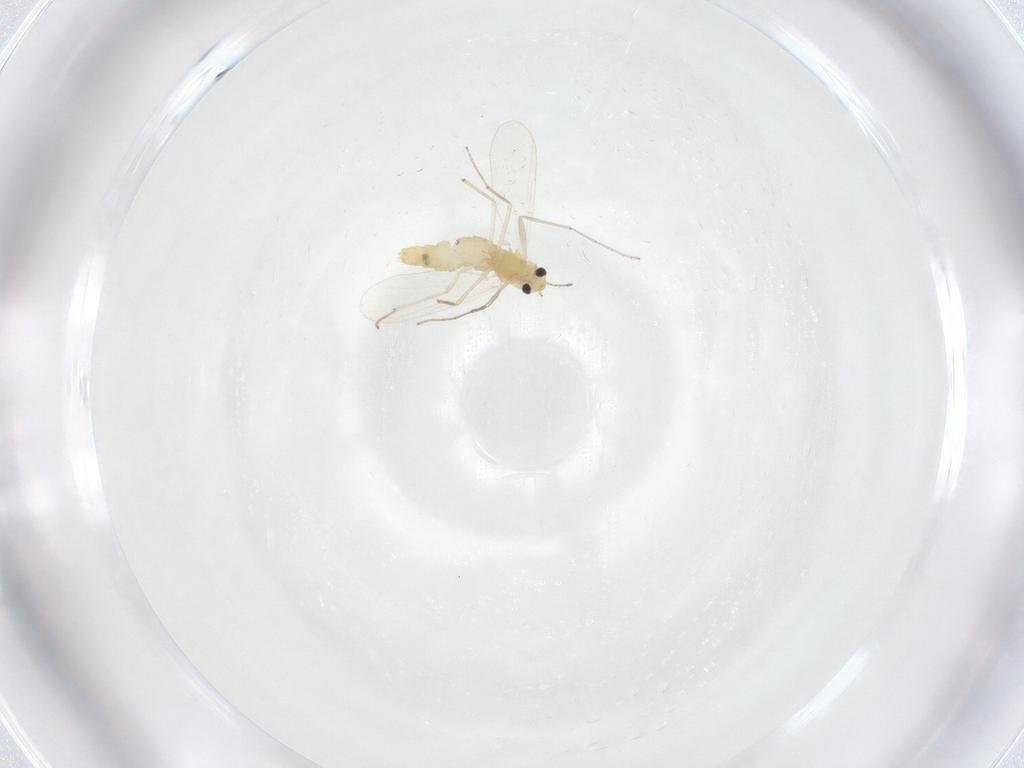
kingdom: Animalia
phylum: Arthropoda
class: Insecta
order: Diptera
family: Chironomidae
